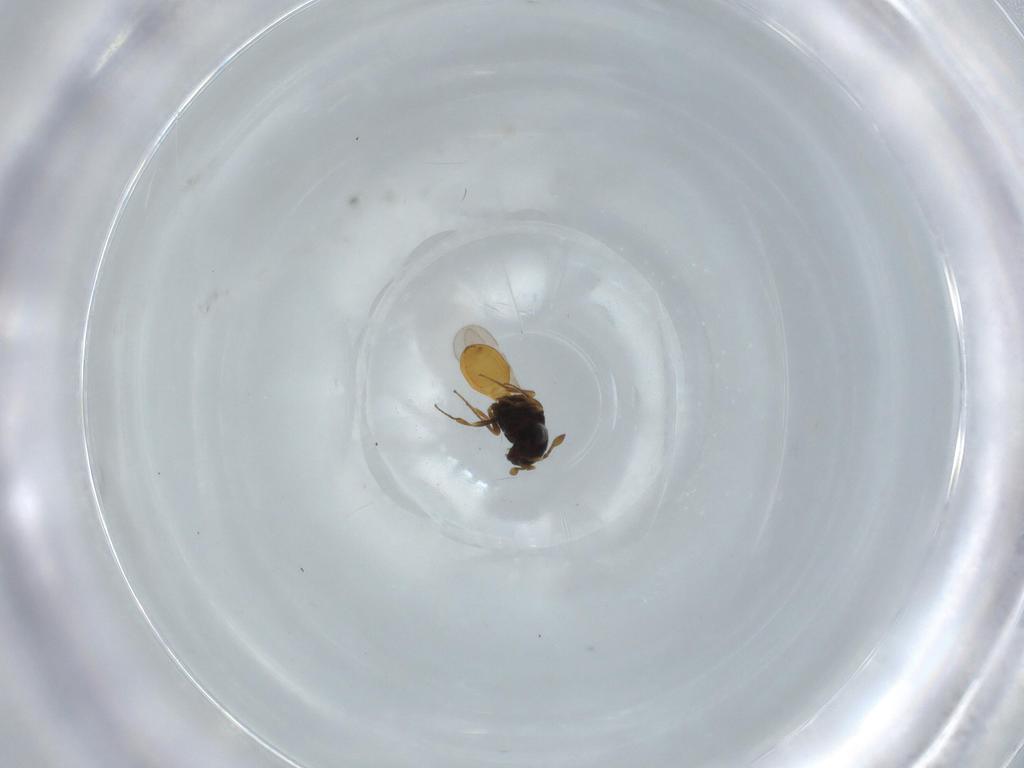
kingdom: Animalia
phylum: Arthropoda
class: Insecta
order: Hymenoptera
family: Scelionidae
